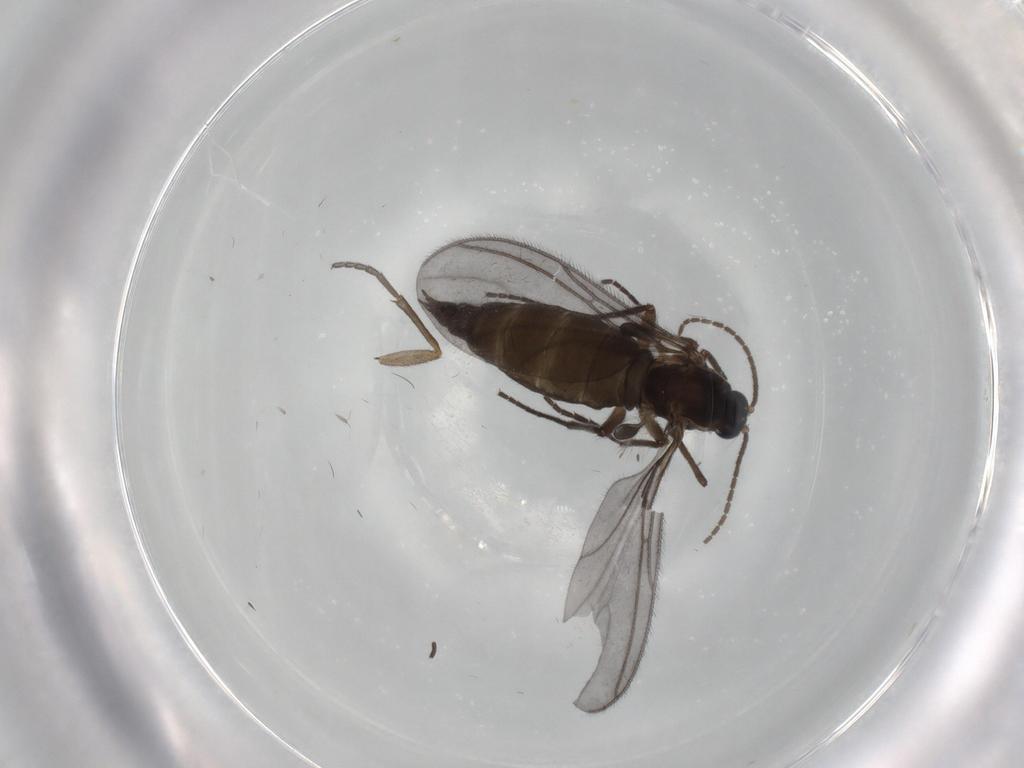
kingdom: Animalia
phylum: Arthropoda
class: Insecta
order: Diptera
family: Sciaridae
